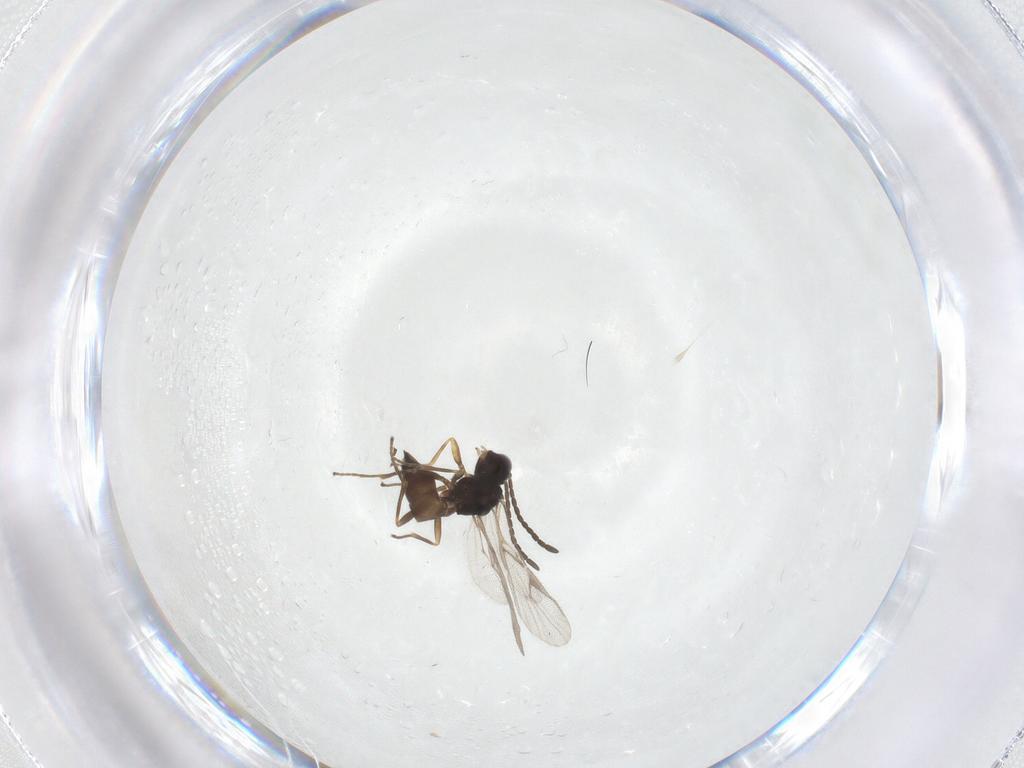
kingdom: Animalia
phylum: Arthropoda
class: Insecta
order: Hymenoptera
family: Braconidae
